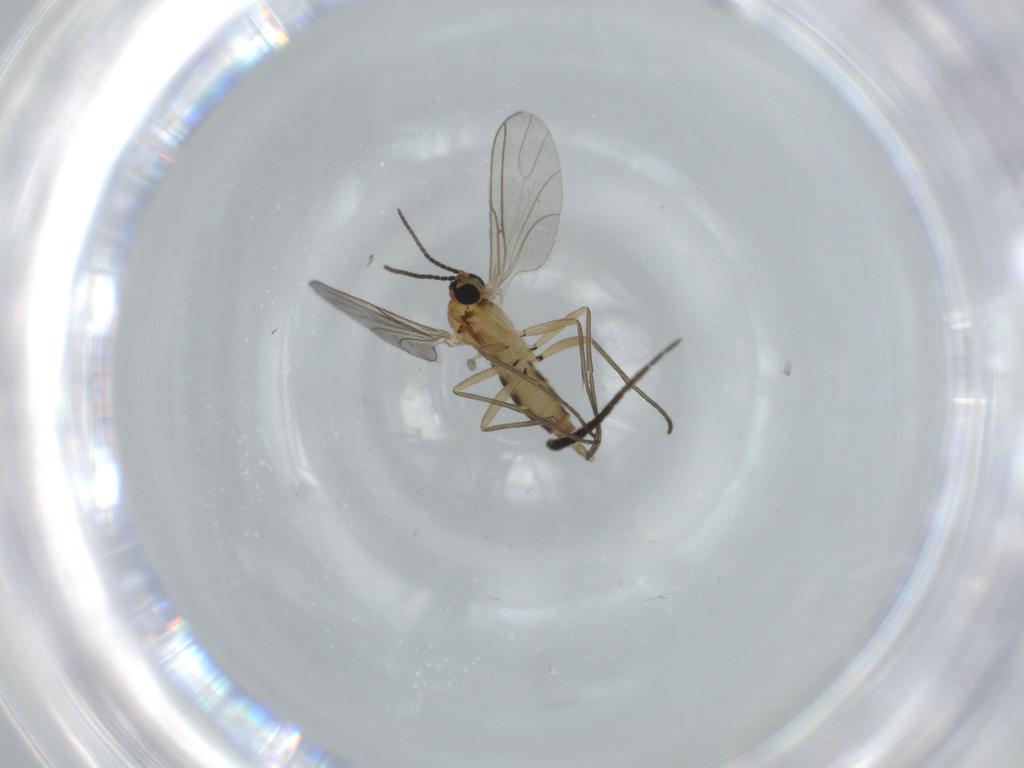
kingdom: Animalia
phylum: Arthropoda
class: Insecta
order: Diptera
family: Sciaridae
